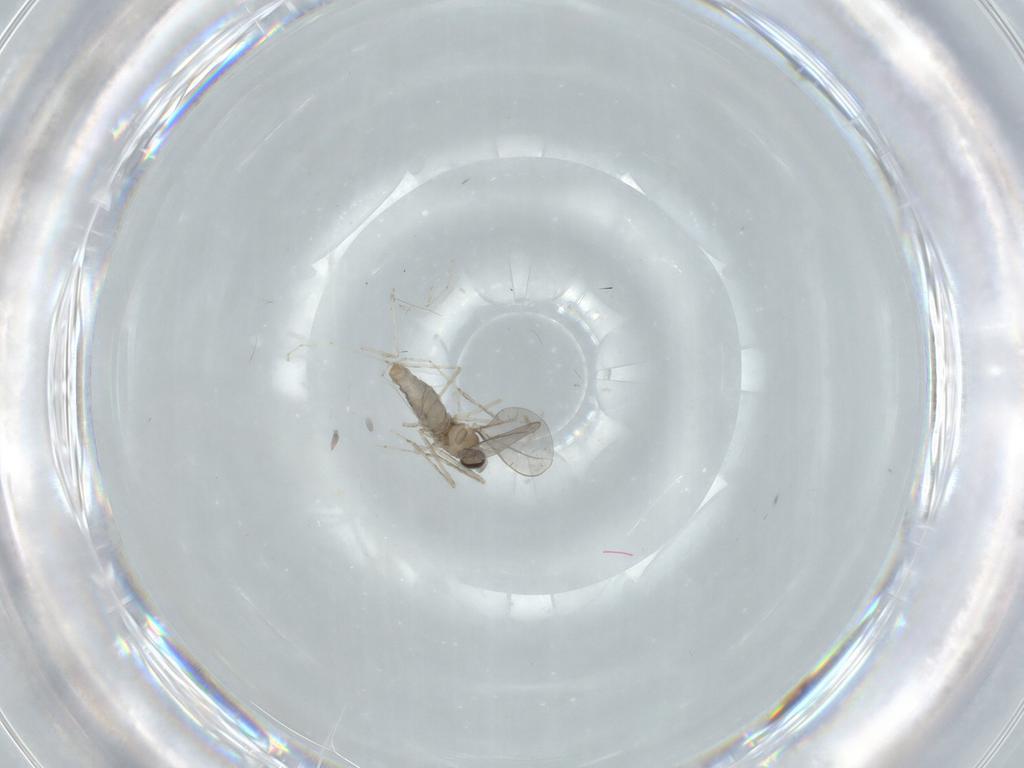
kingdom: Animalia
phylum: Arthropoda
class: Insecta
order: Diptera
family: Cecidomyiidae
